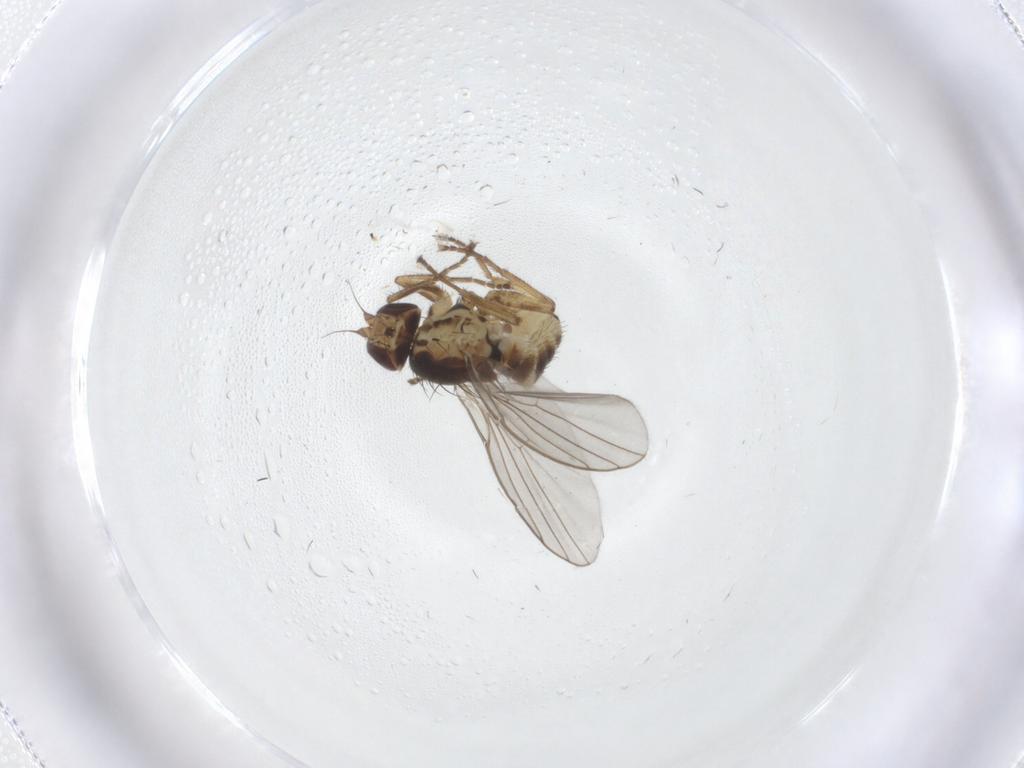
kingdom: Animalia
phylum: Arthropoda
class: Insecta
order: Diptera
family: Agromyzidae
